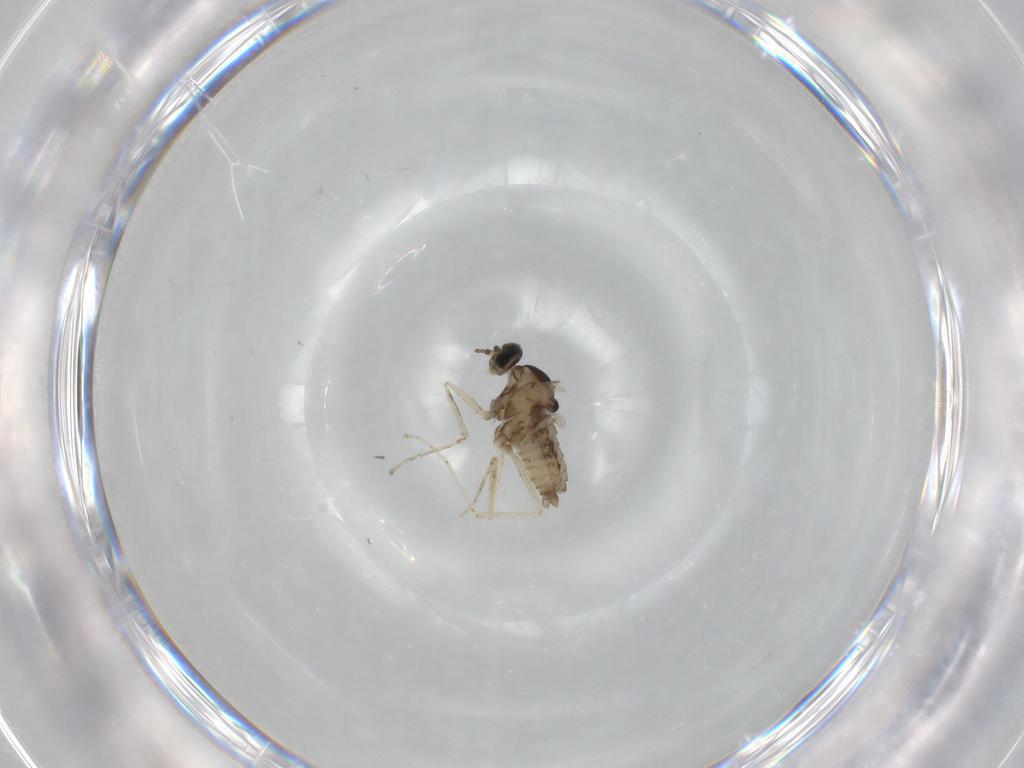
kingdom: Animalia
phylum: Arthropoda
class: Insecta
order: Diptera
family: Cecidomyiidae
